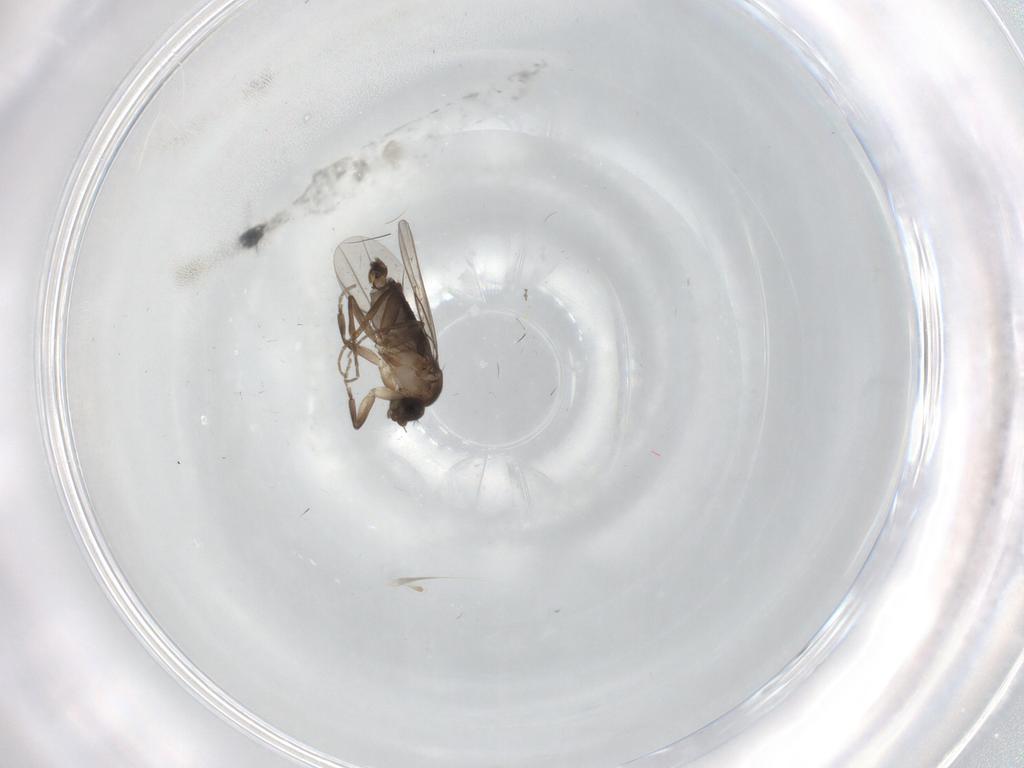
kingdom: Animalia
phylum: Arthropoda
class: Insecta
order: Diptera
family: Phoridae
